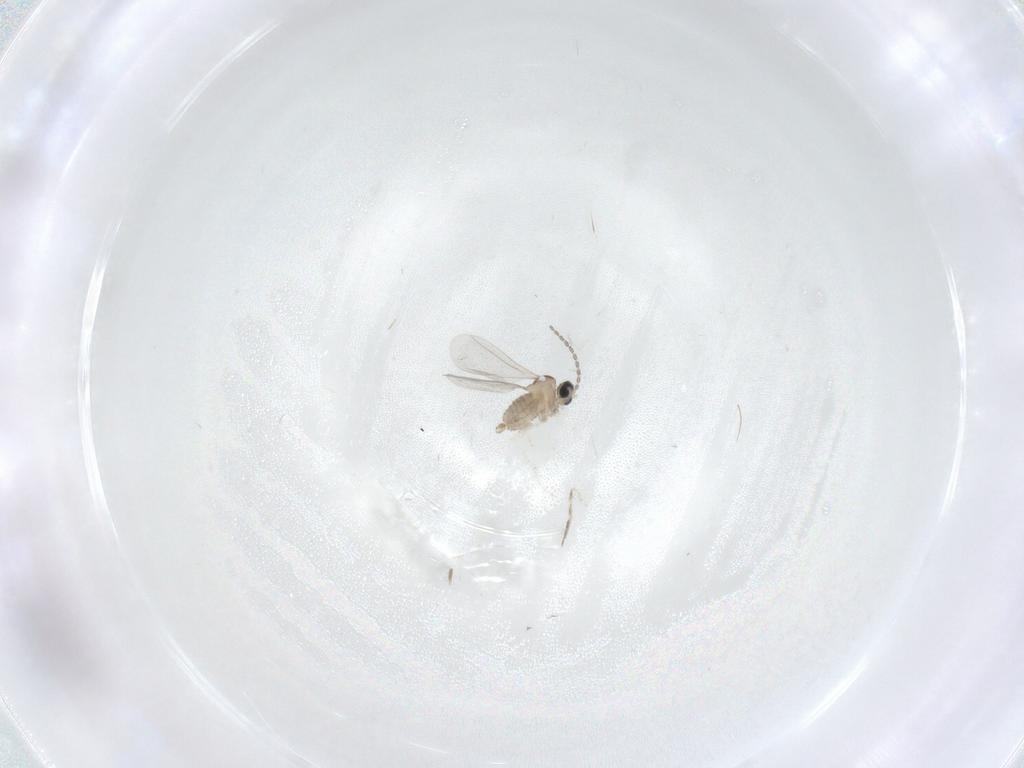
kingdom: Animalia
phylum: Arthropoda
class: Insecta
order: Diptera
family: Cecidomyiidae
